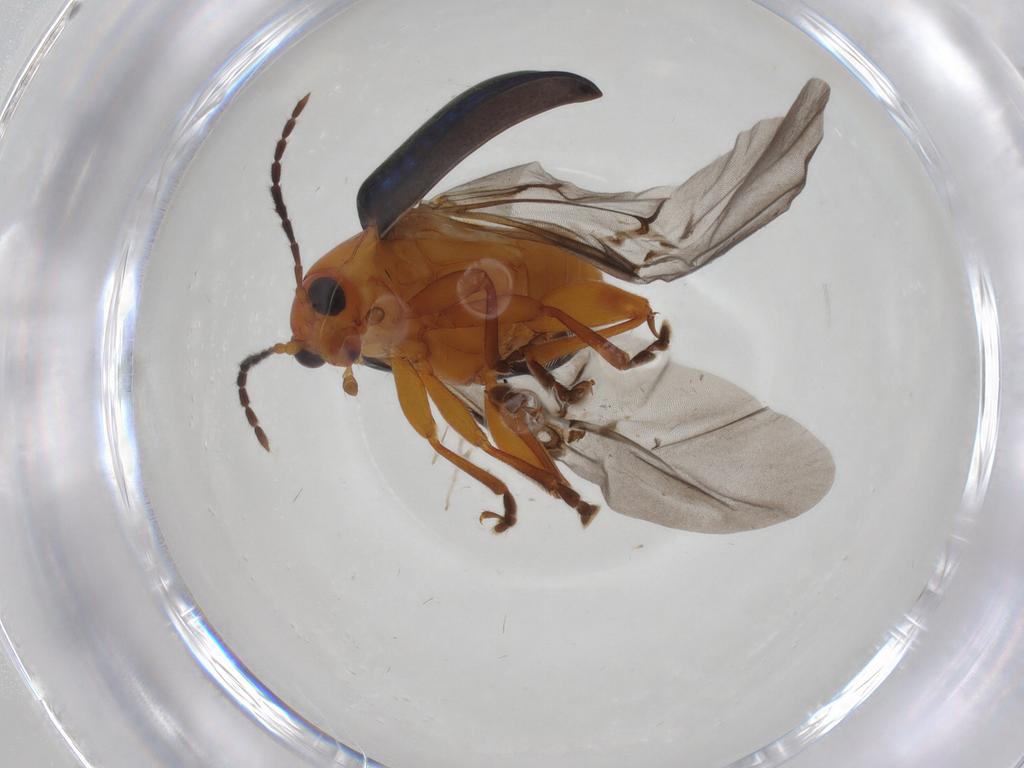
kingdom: Animalia
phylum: Arthropoda
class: Insecta
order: Coleoptera
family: Chrysomelidae
